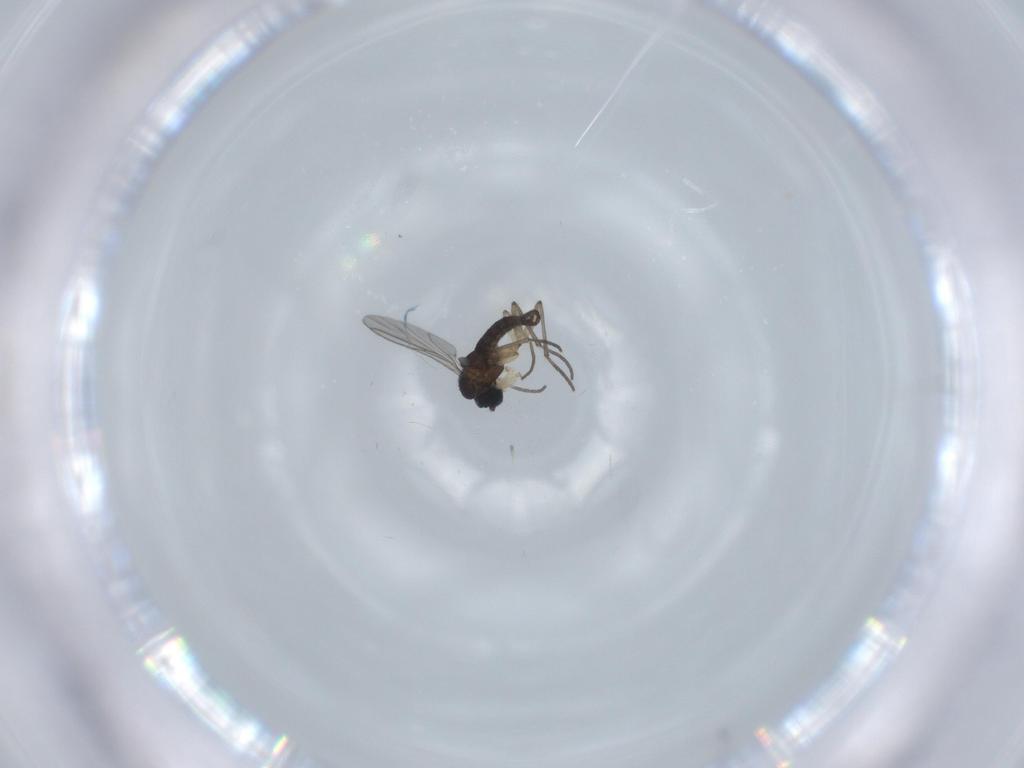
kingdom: Animalia
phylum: Arthropoda
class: Insecta
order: Diptera
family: Sciaridae
